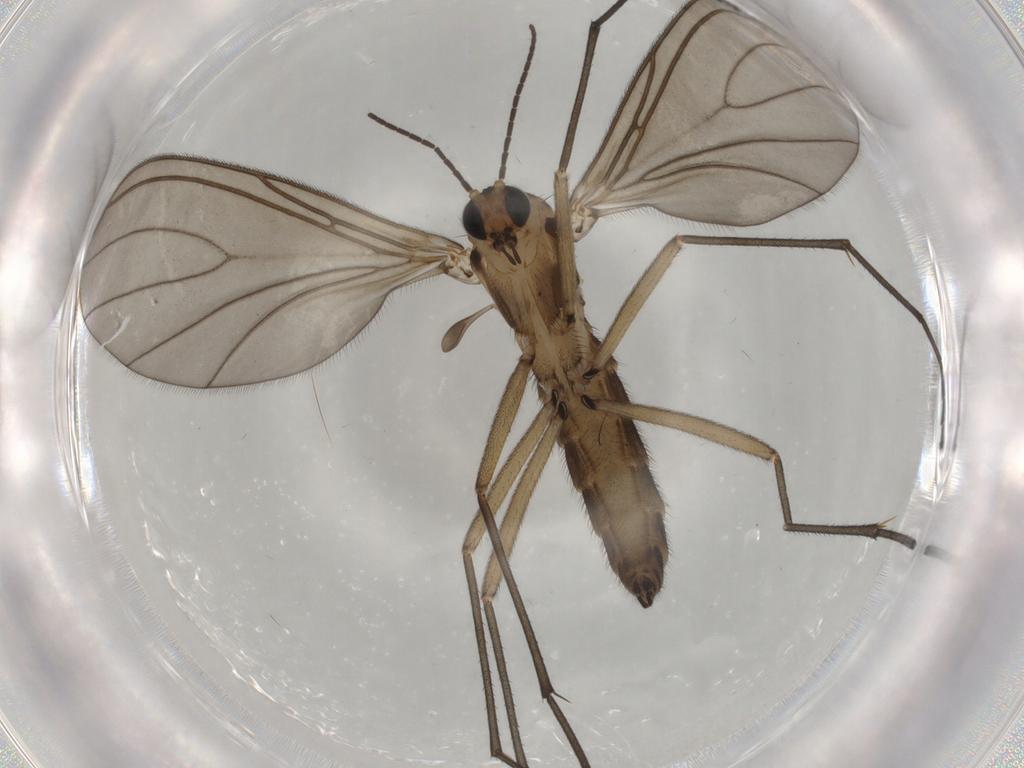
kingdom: Animalia
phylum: Arthropoda
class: Insecta
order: Diptera
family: Sciaridae
